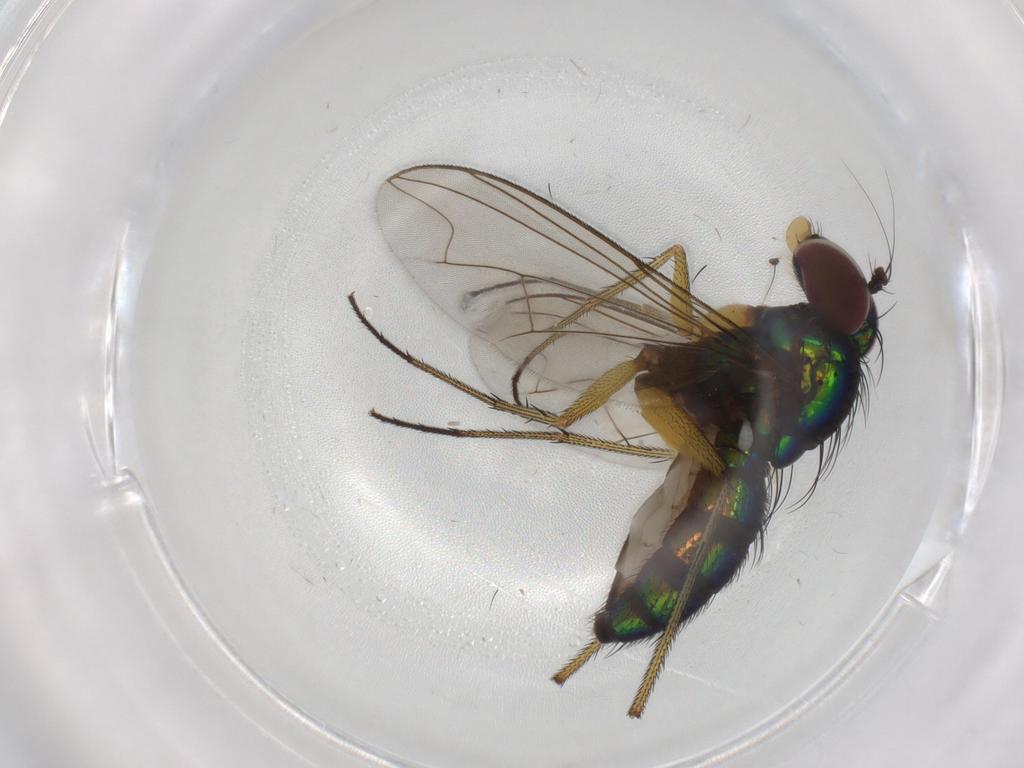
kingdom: Animalia
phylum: Arthropoda
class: Insecta
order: Diptera
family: Dolichopodidae
